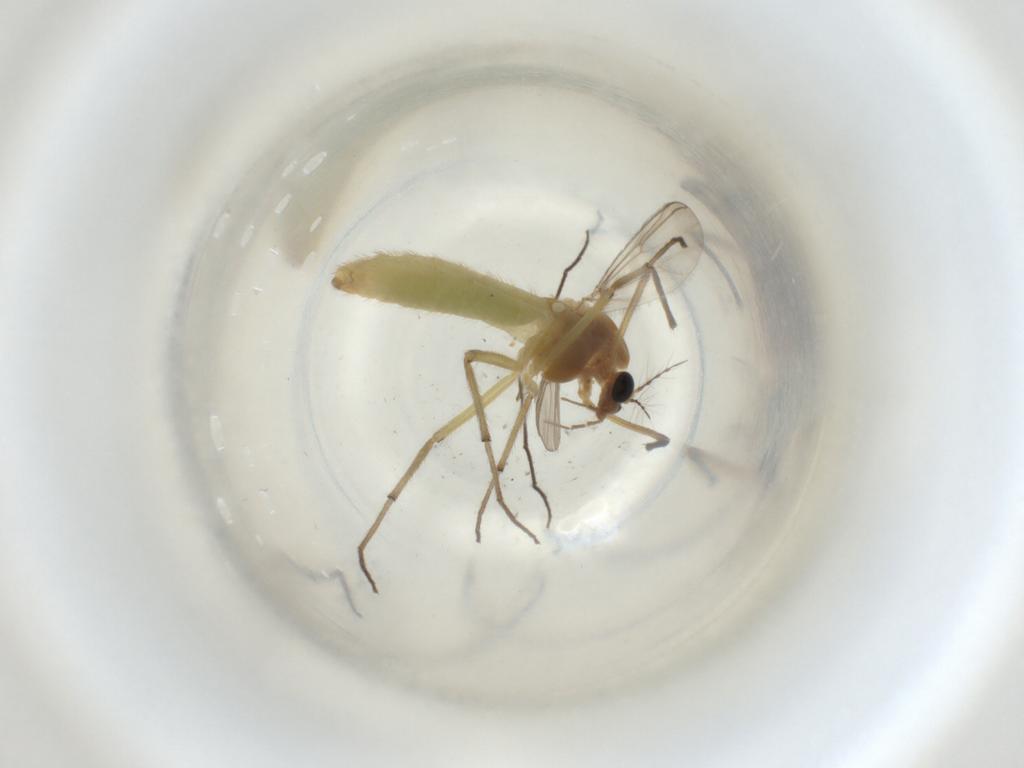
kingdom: Animalia
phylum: Arthropoda
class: Insecta
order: Diptera
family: Chironomidae
